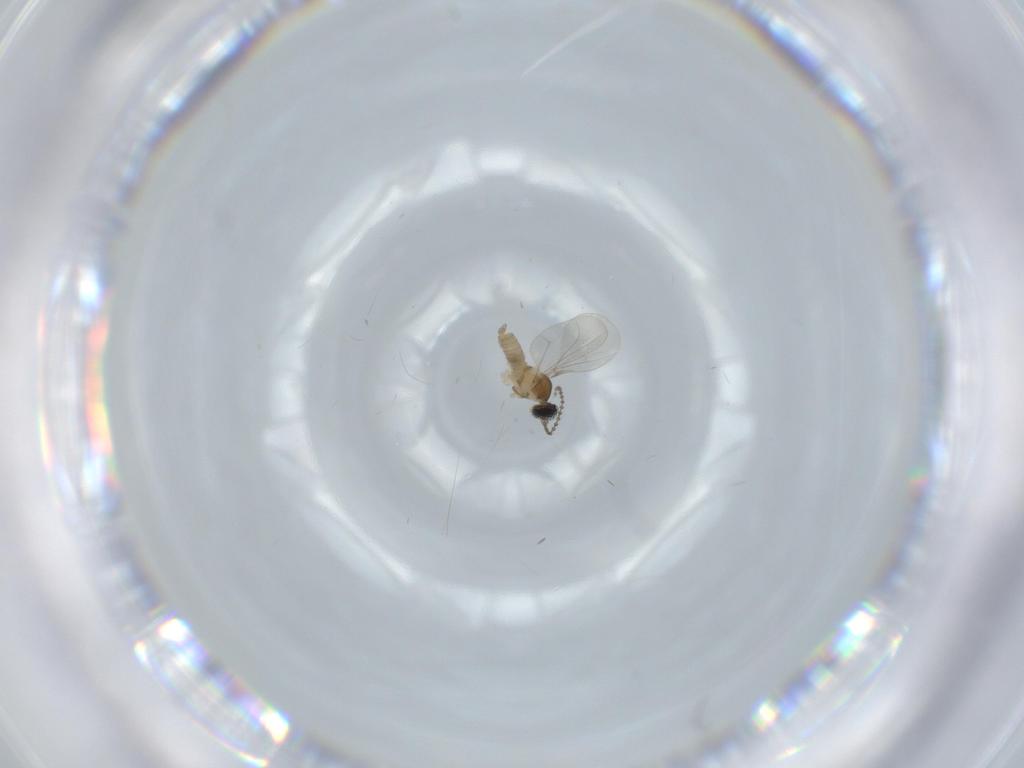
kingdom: Animalia
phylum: Arthropoda
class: Insecta
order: Diptera
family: Cecidomyiidae
